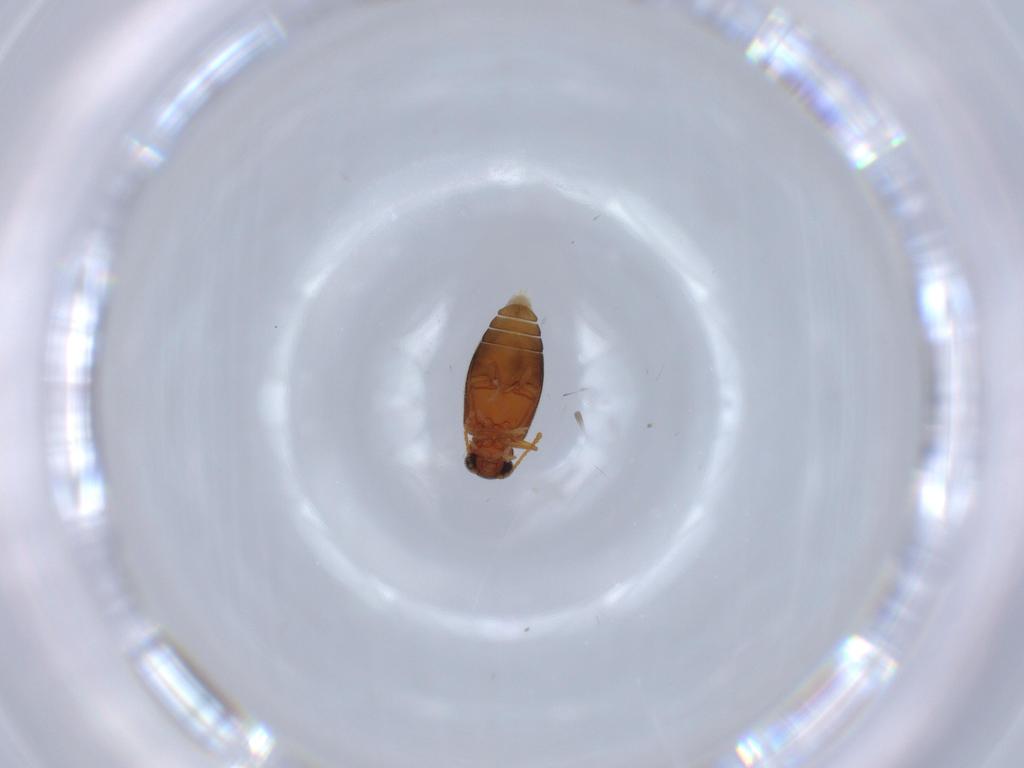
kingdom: Animalia
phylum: Arthropoda
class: Insecta
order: Coleoptera
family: Aderidae
